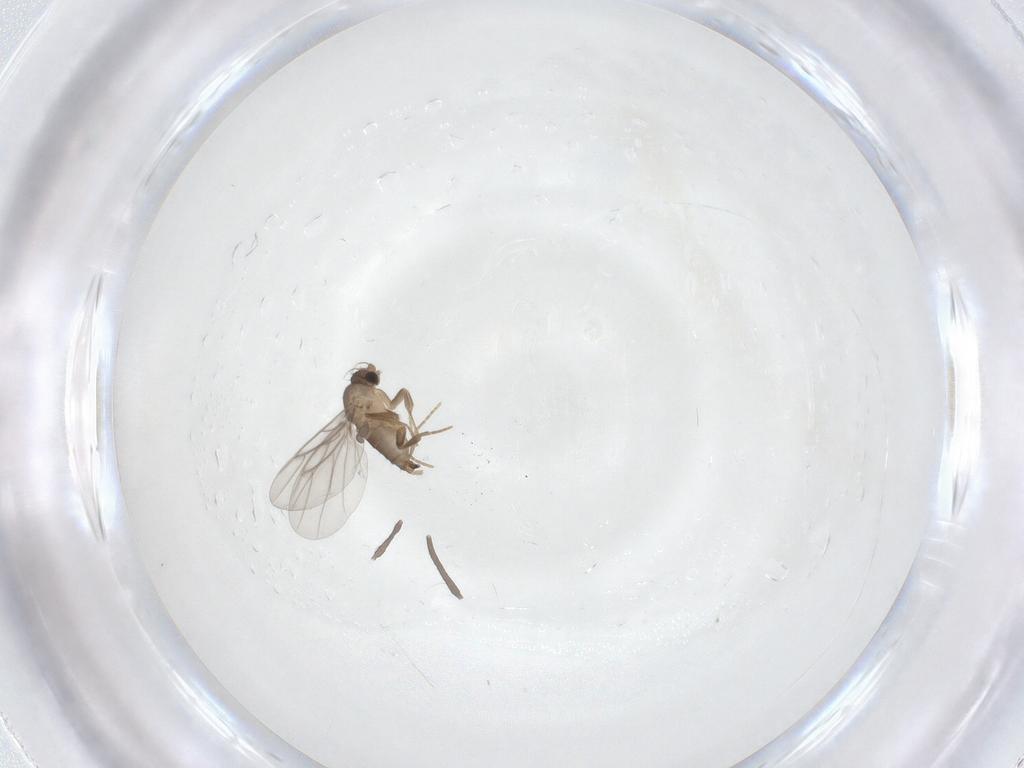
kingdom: Animalia
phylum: Arthropoda
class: Insecta
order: Diptera
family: Cecidomyiidae
